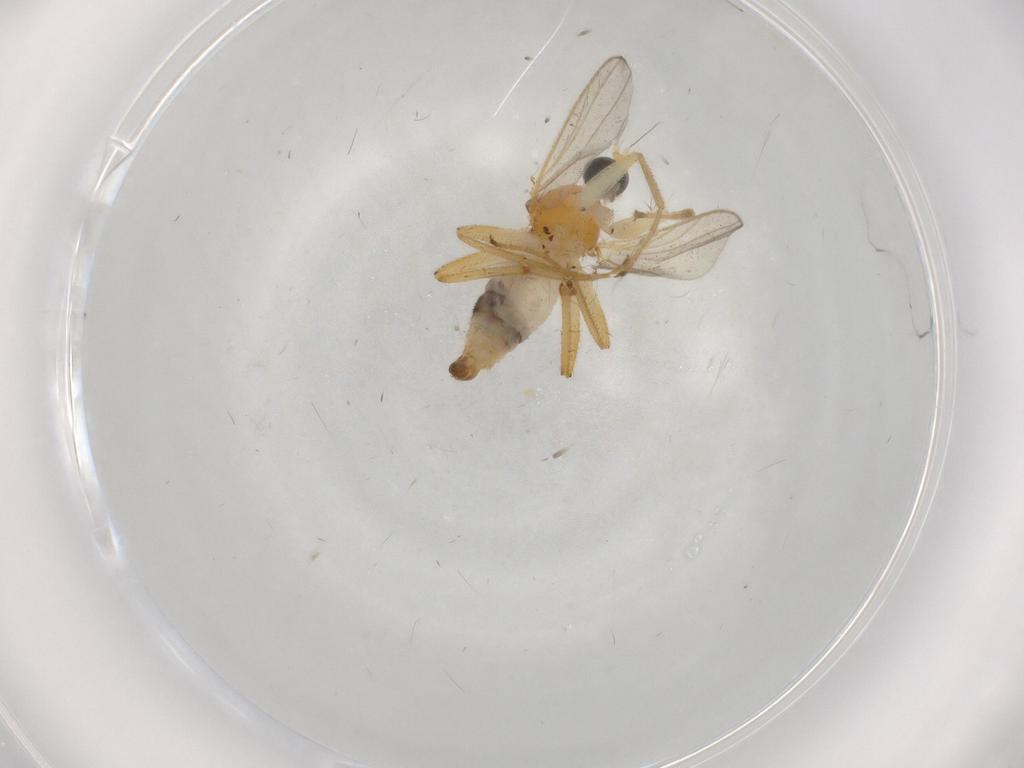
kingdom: Animalia
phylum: Arthropoda
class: Insecta
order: Diptera
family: Hybotidae
